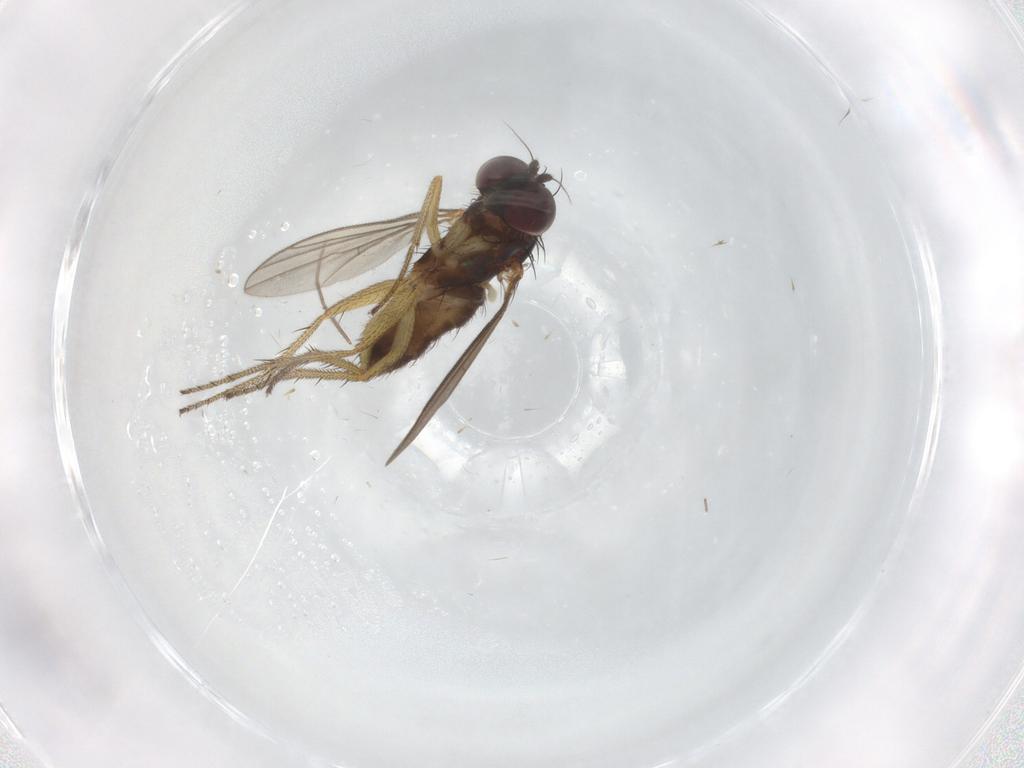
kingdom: Animalia
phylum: Arthropoda
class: Insecta
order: Diptera
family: Chironomidae
